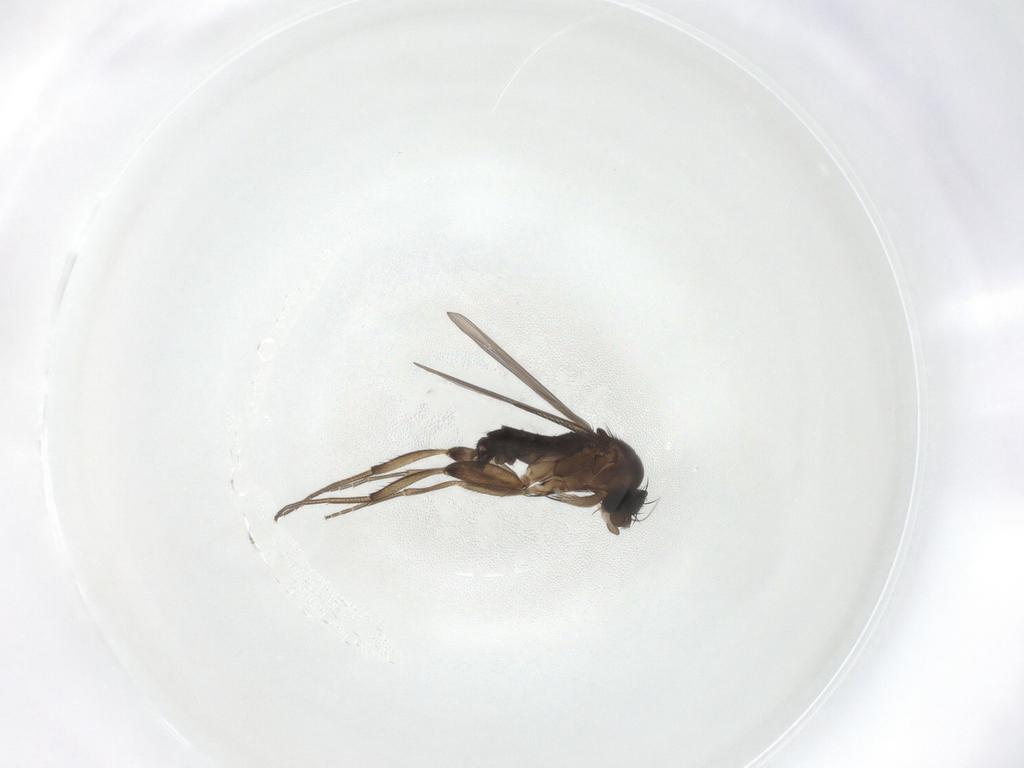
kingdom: Animalia
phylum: Arthropoda
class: Insecta
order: Diptera
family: Phoridae
